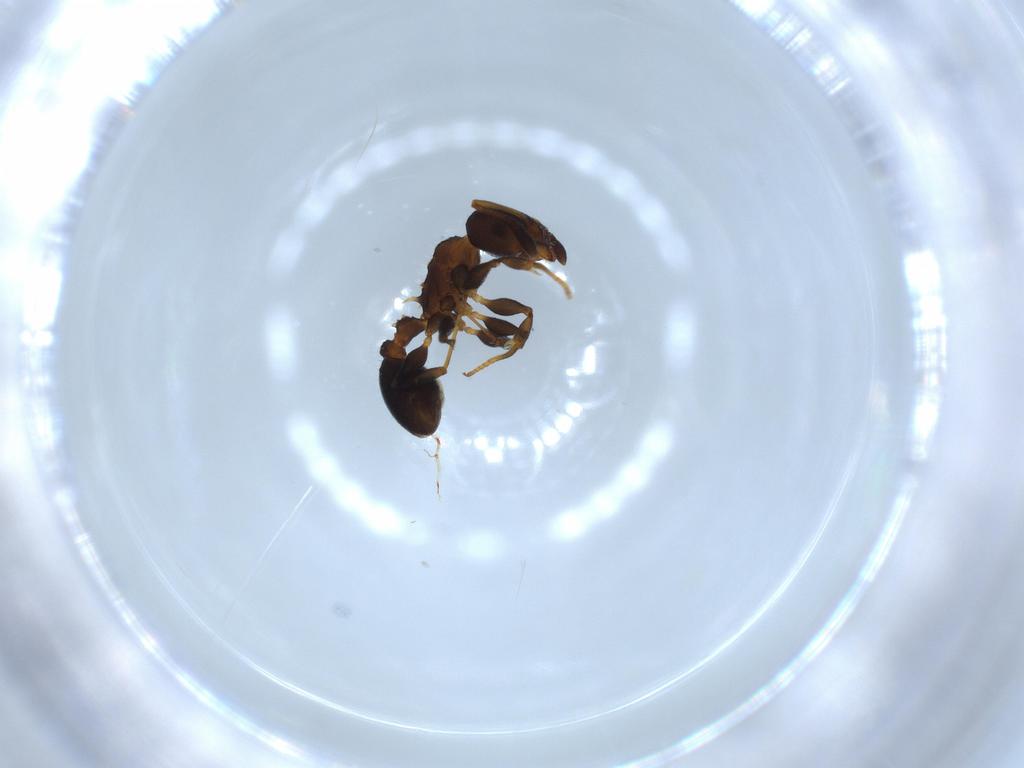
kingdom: Animalia
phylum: Arthropoda
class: Insecta
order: Hymenoptera
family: Formicidae
